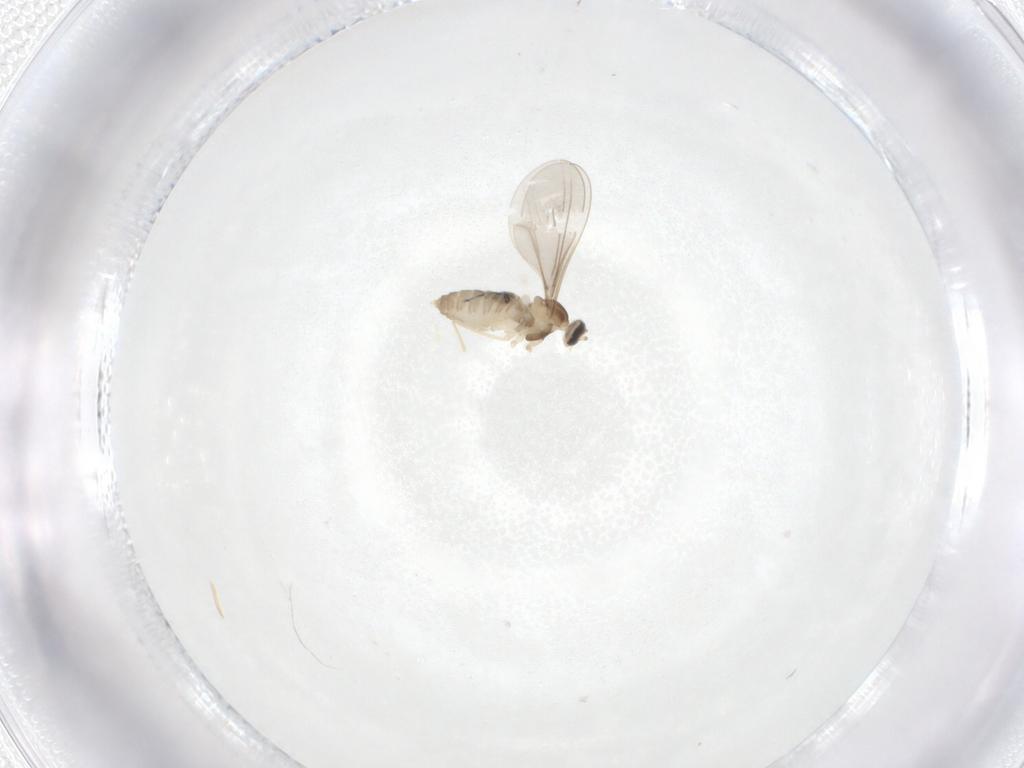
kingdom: Animalia
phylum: Arthropoda
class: Insecta
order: Diptera
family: Cecidomyiidae
